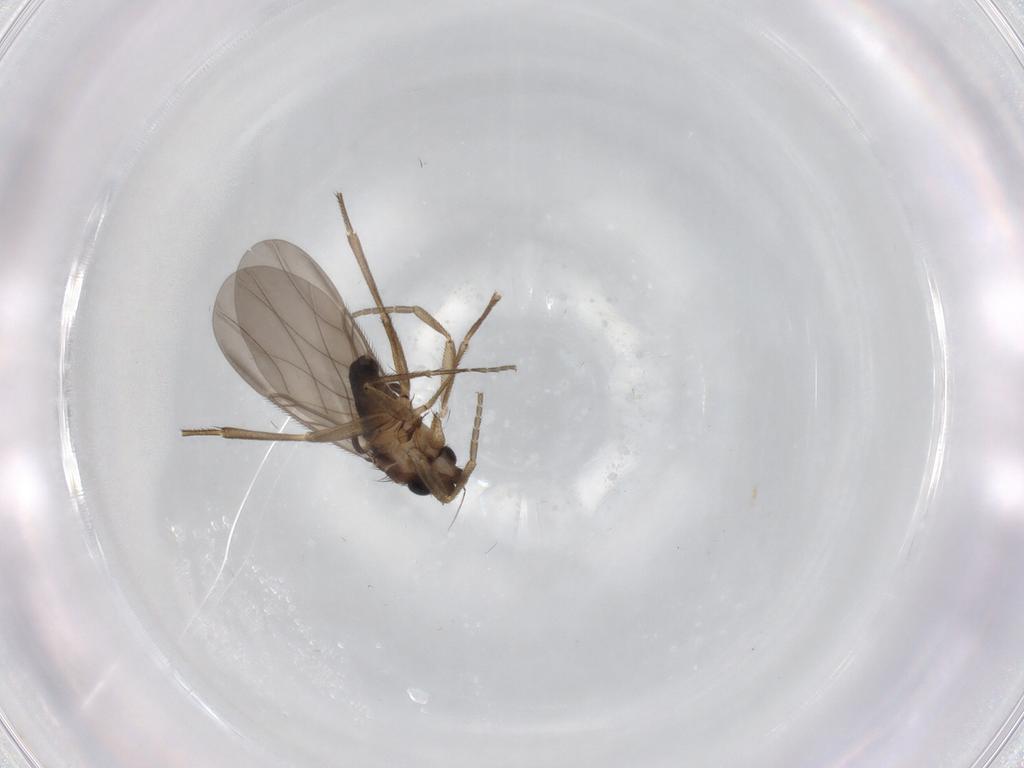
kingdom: Animalia
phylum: Arthropoda
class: Insecta
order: Diptera
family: Phoridae
